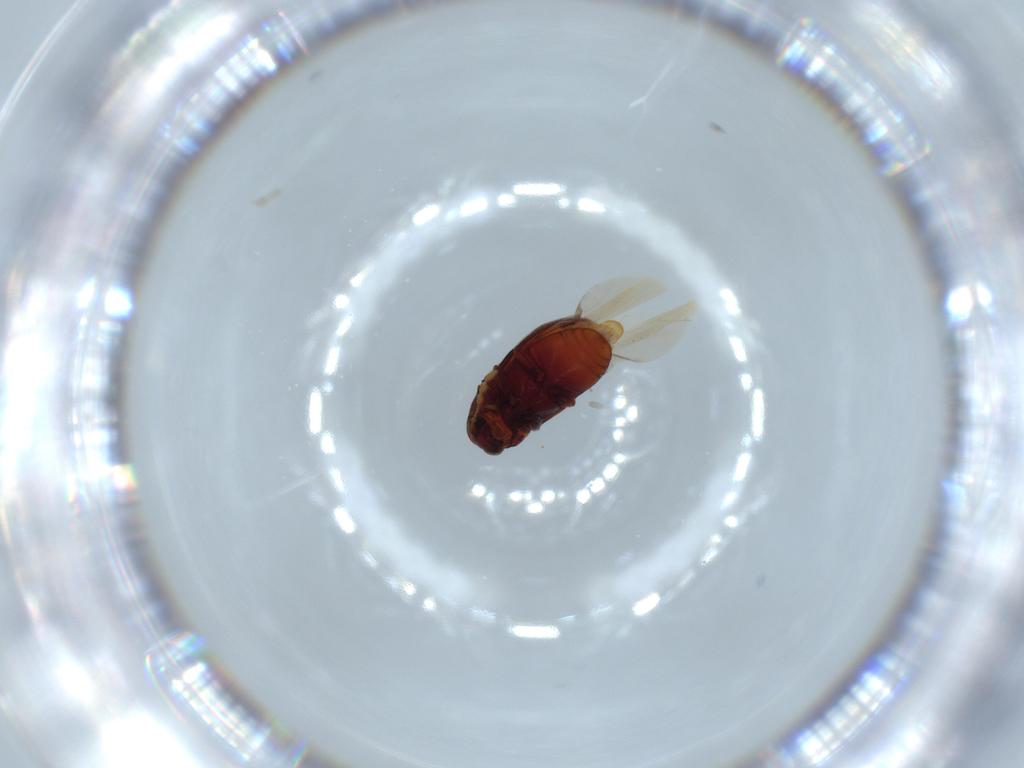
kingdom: Animalia
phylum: Arthropoda
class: Insecta
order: Coleoptera
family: Ptinidae
